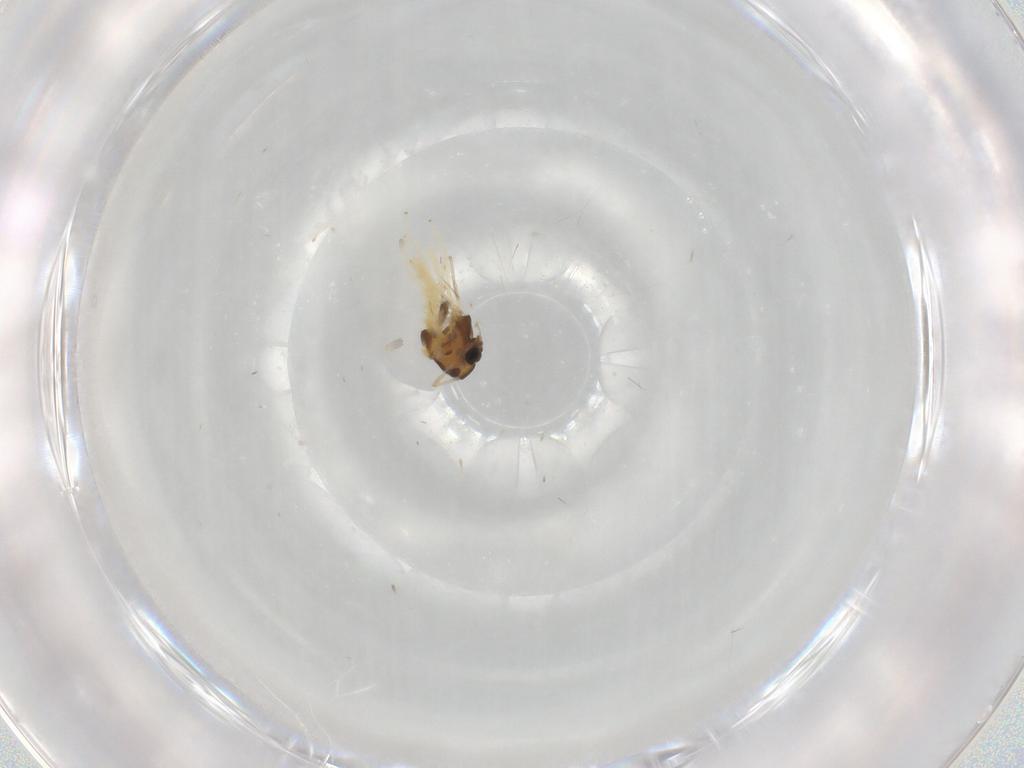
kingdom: Animalia
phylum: Arthropoda
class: Insecta
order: Diptera
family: Chironomidae
